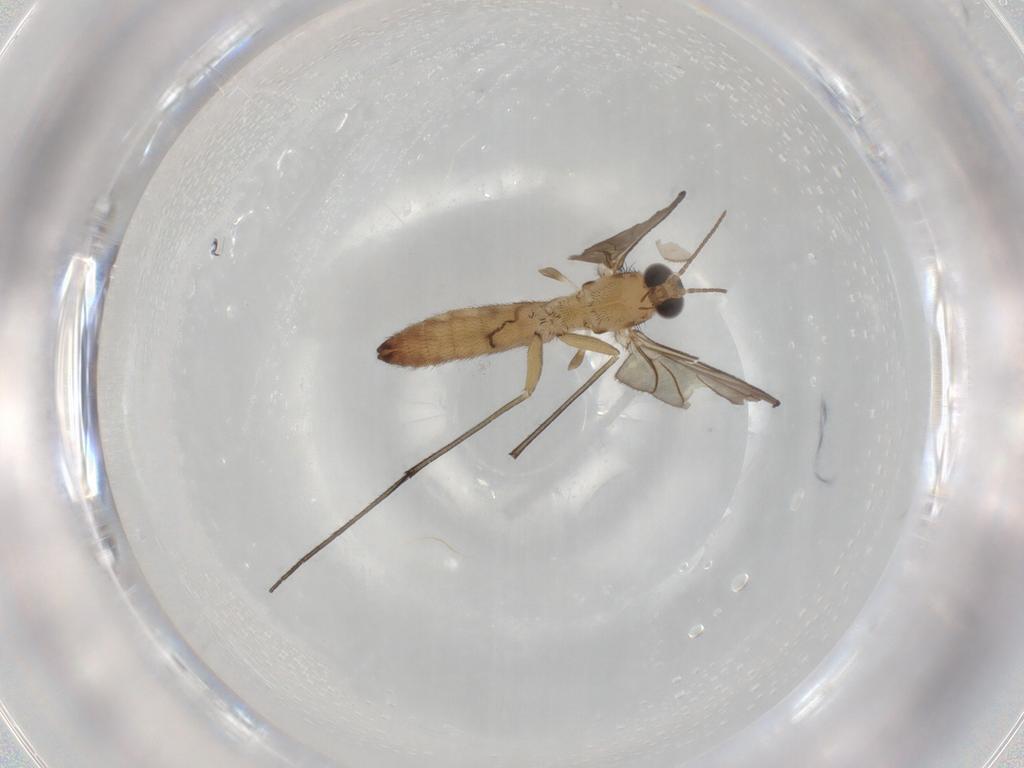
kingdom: Animalia
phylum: Arthropoda
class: Insecta
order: Diptera
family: Keroplatidae
